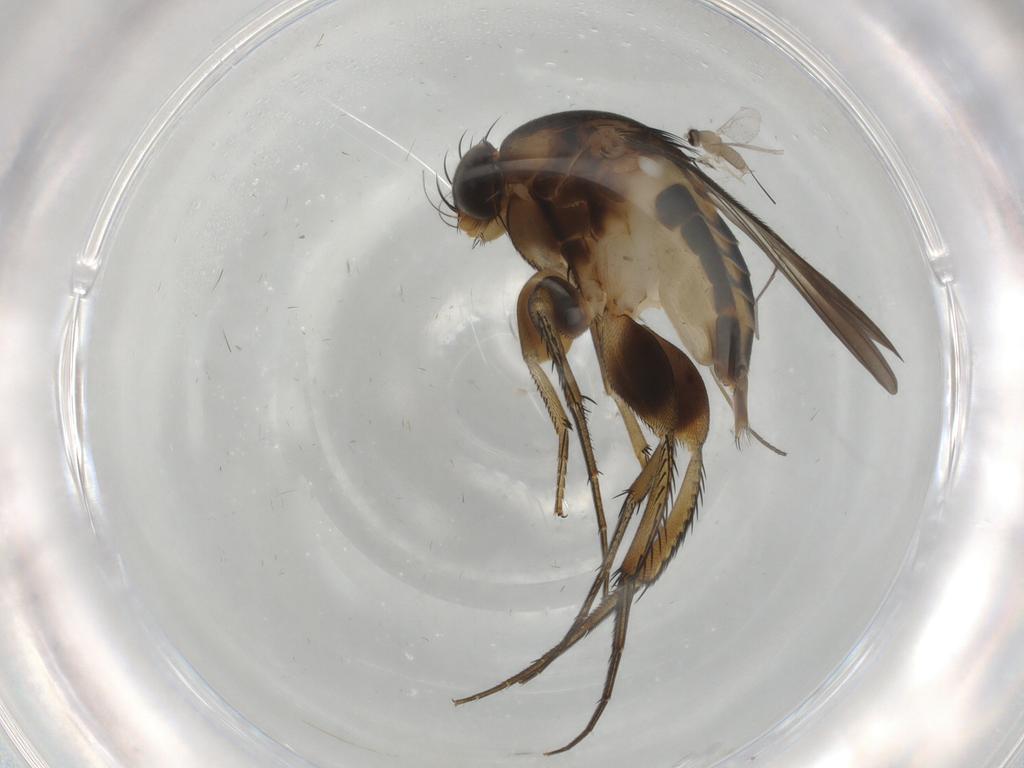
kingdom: Animalia
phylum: Arthropoda
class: Insecta
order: Diptera
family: Phoridae
